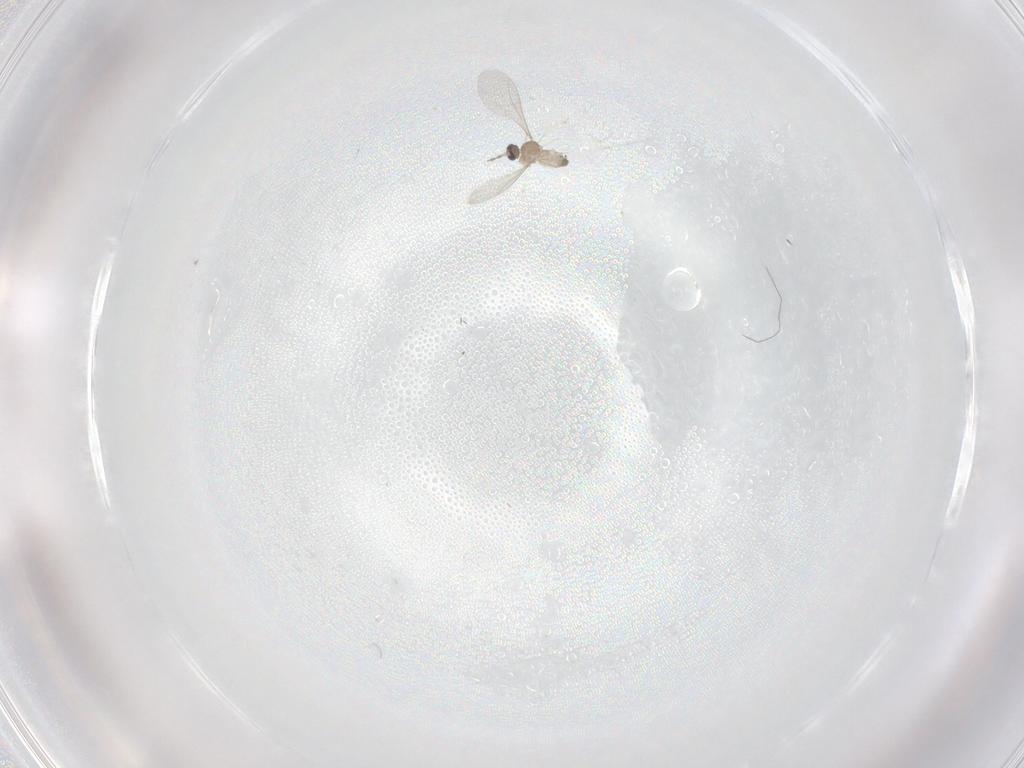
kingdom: Animalia
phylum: Arthropoda
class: Insecta
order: Diptera
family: Cecidomyiidae
